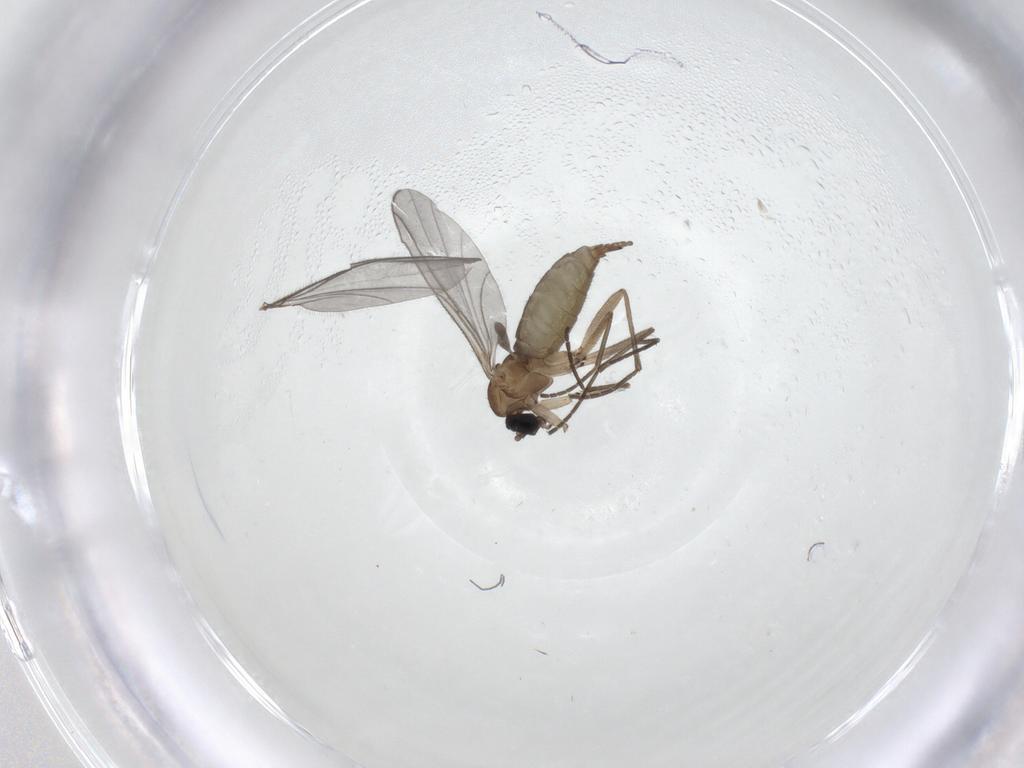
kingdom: Animalia
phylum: Arthropoda
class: Insecta
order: Diptera
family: Sciaridae
